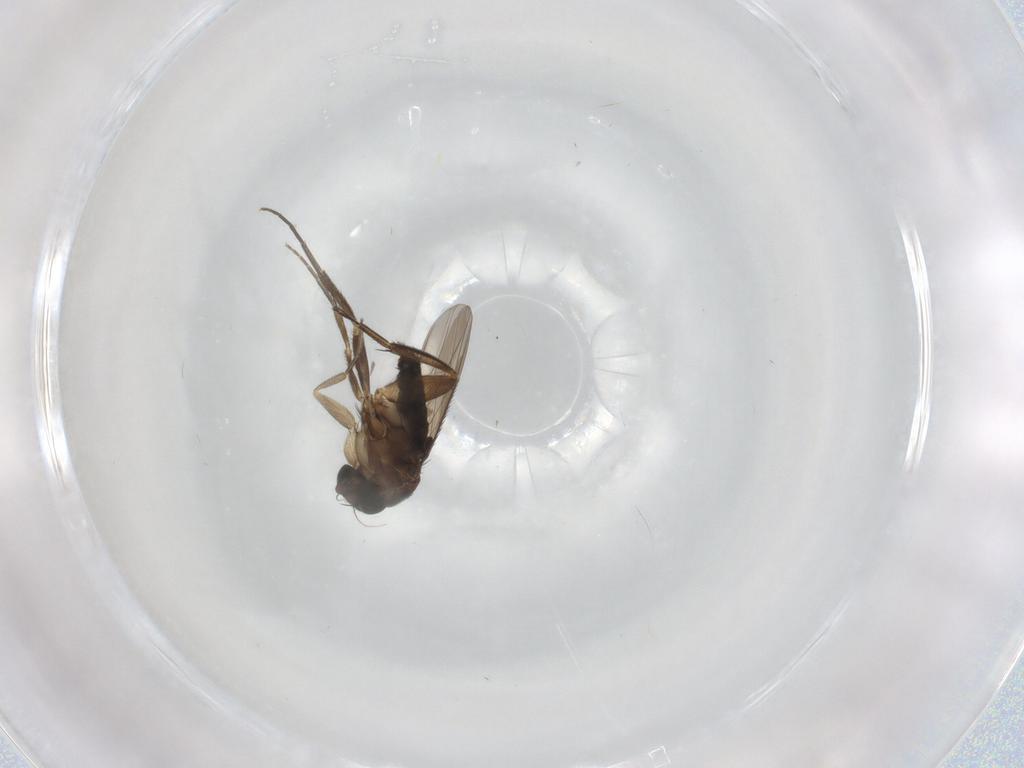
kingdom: Animalia
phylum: Arthropoda
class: Insecta
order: Diptera
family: Phoridae
